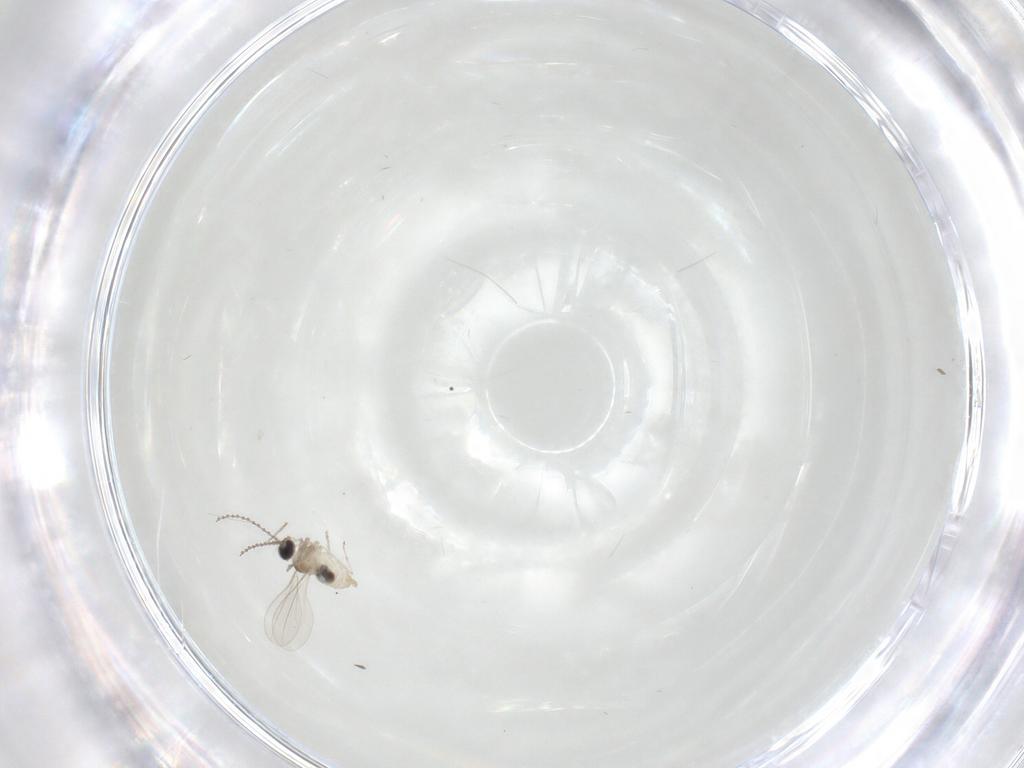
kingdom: Animalia
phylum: Arthropoda
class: Insecta
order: Diptera
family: Cecidomyiidae
